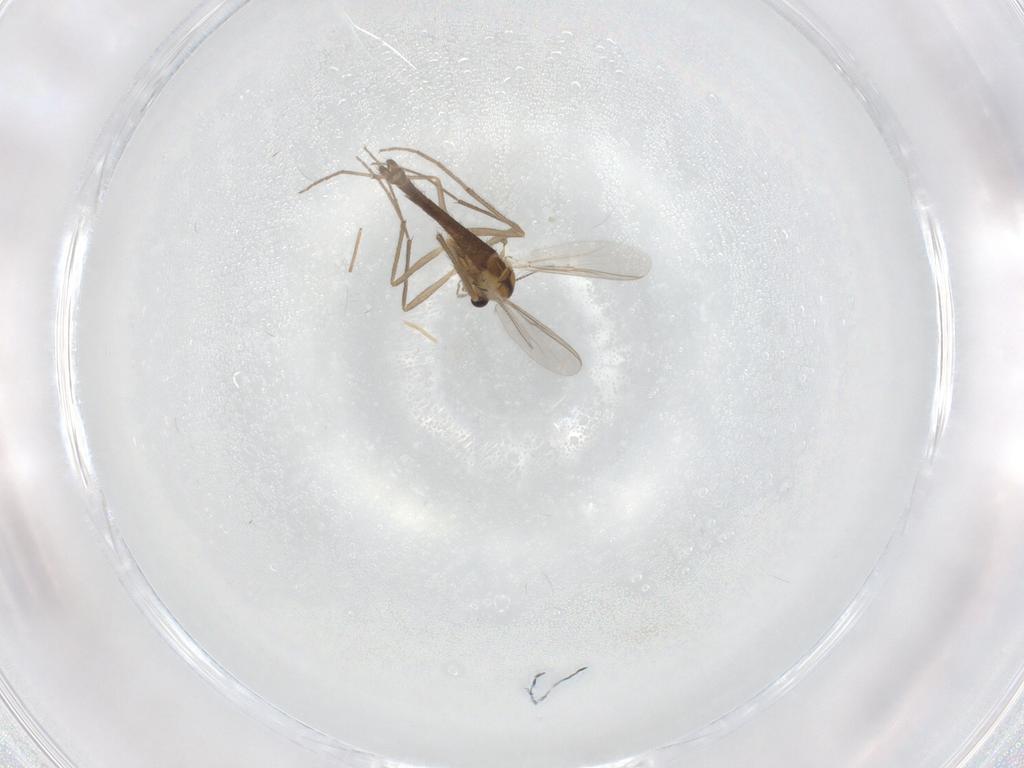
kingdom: Animalia
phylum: Arthropoda
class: Insecta
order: Diptera
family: Chironomidae
